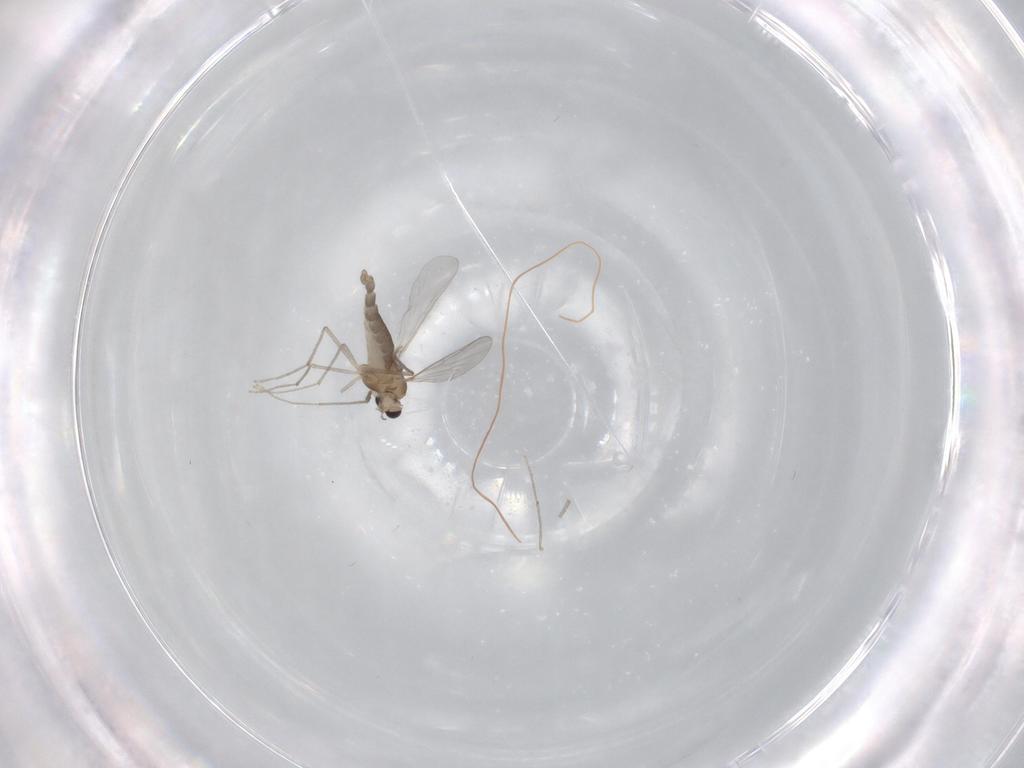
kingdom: Animalia
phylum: Arthropoda
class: Insecta
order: Diptera
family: Chironomidae
